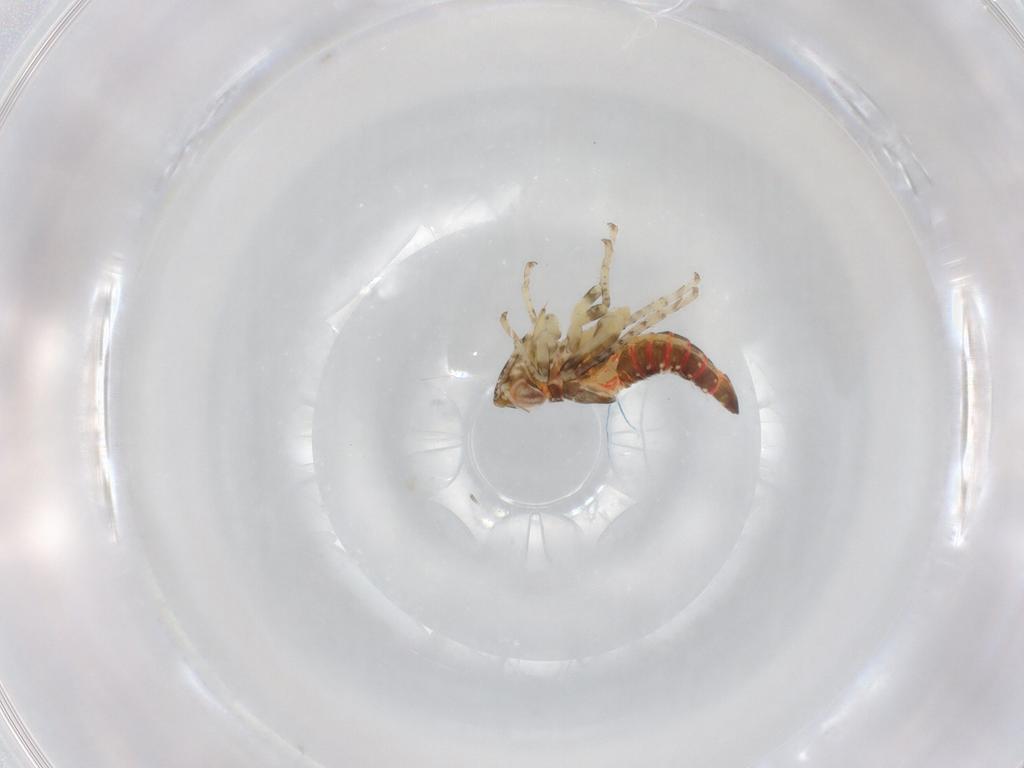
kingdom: Animalia
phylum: Arthropoda
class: Insecta
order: Hemiptera
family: Cicadellidae
